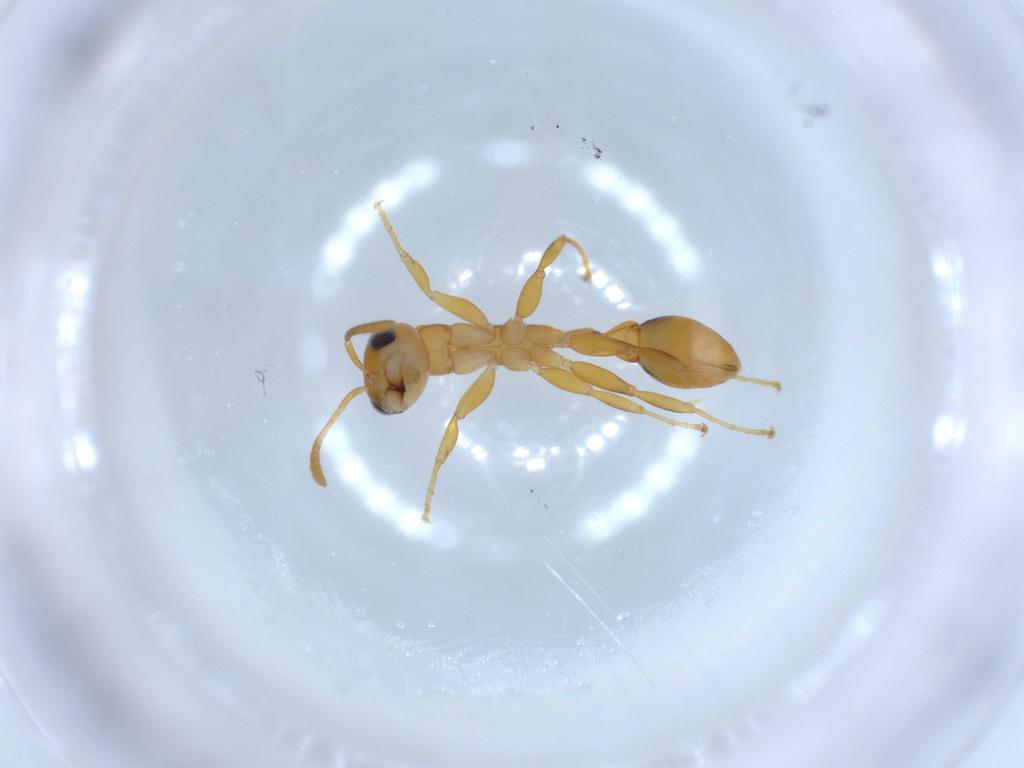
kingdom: Animalia
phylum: Arthropoda
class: Insecta
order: Hymenoptera
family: Formicidae
